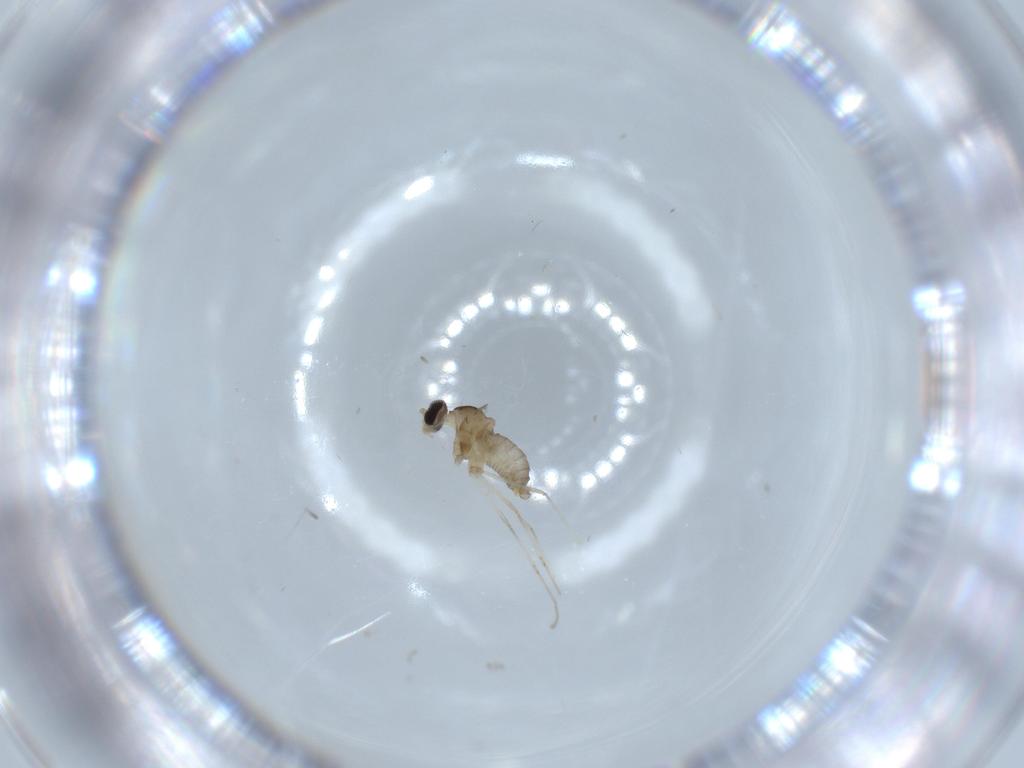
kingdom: Animalia
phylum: Arthropoda
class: Insecta
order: Diptera
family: Cecidomyiidae
